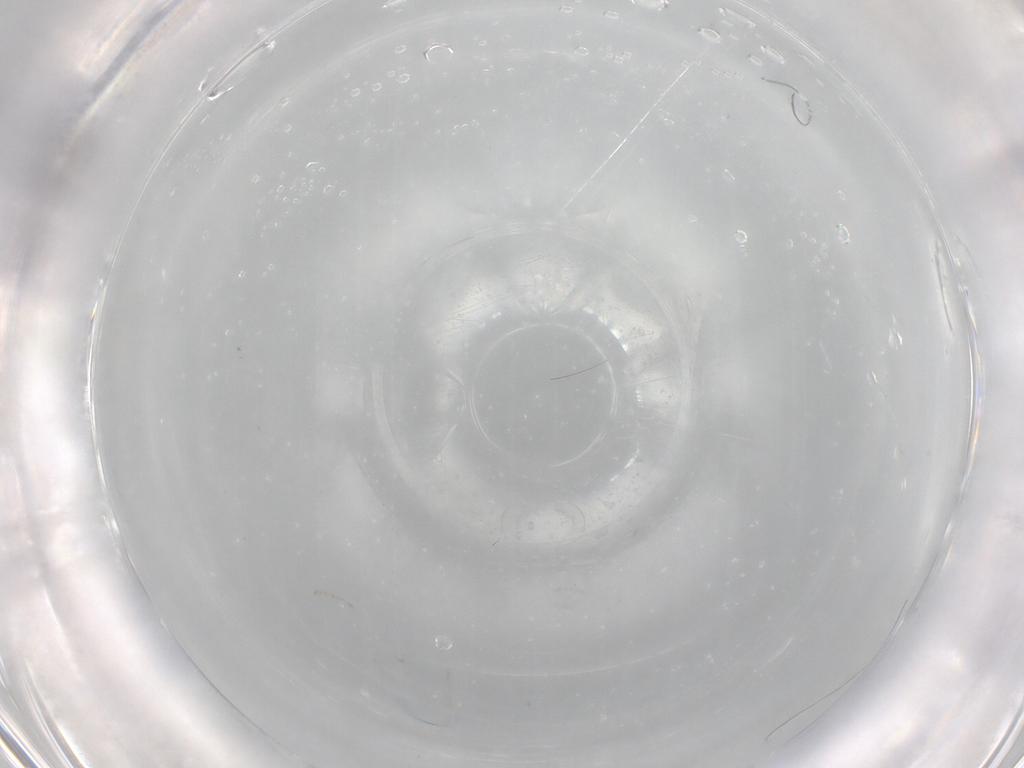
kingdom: Animalia
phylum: Arthropoda
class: Insecta
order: Diptera
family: Cecidomyiidae
